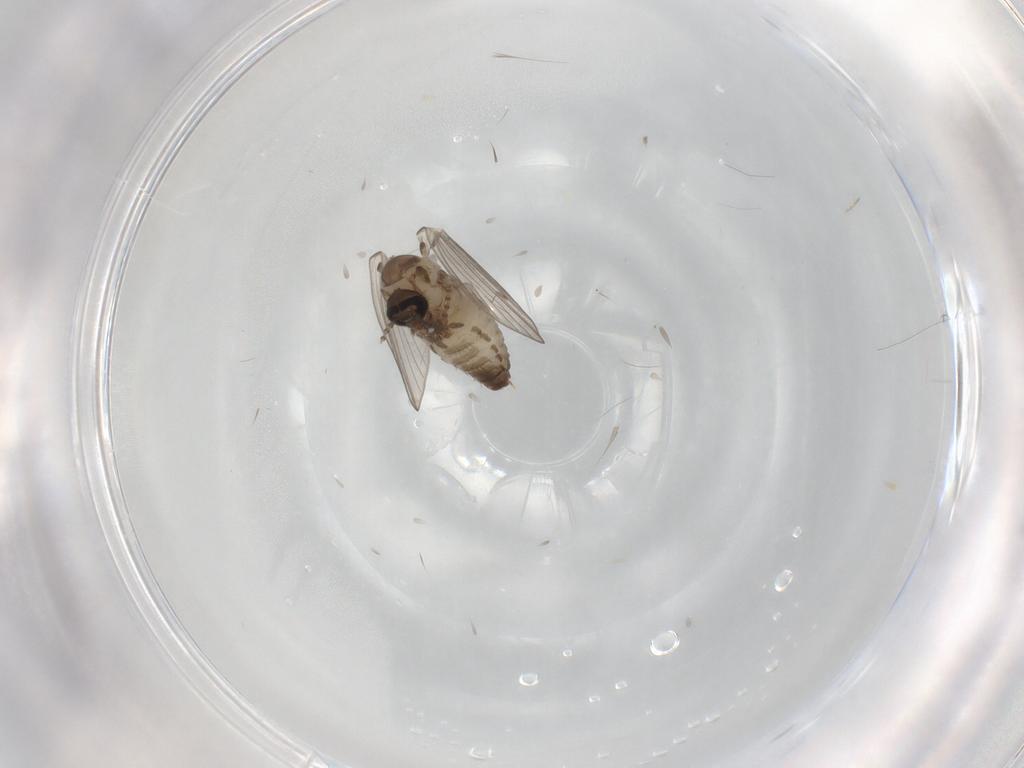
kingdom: Animalia
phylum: Arthropoda
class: Insecta
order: Diptera
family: Psychodidae
